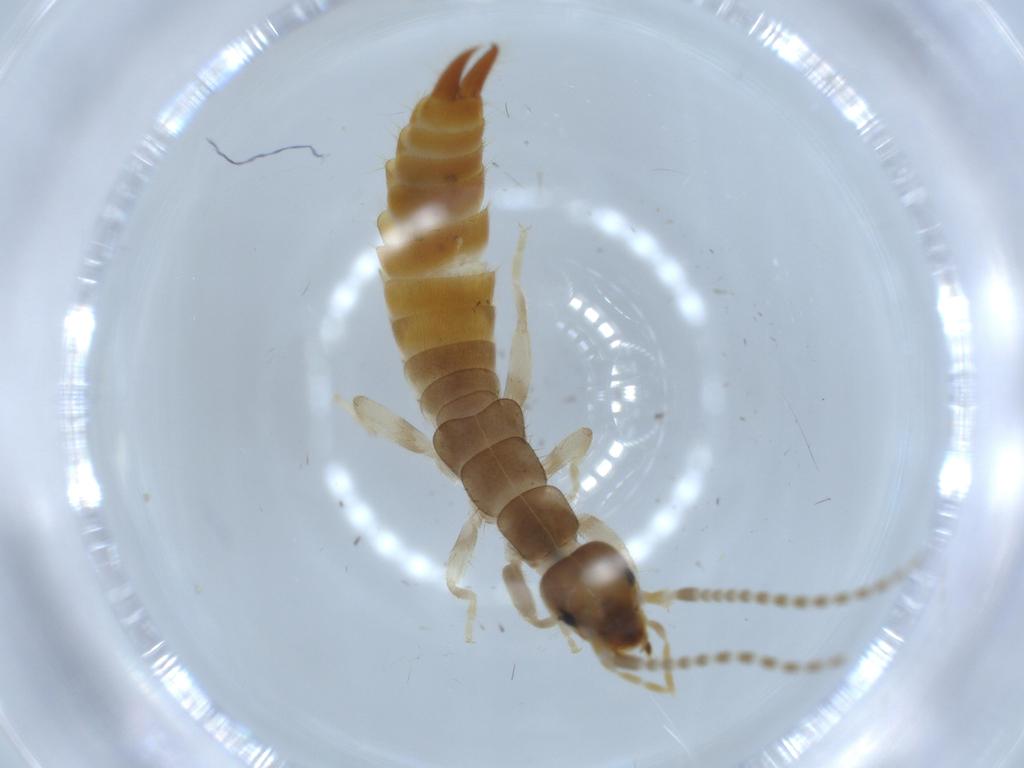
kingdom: Animalia
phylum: Arthropoda
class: Insecta
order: Dermaptera
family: Forficulidae
